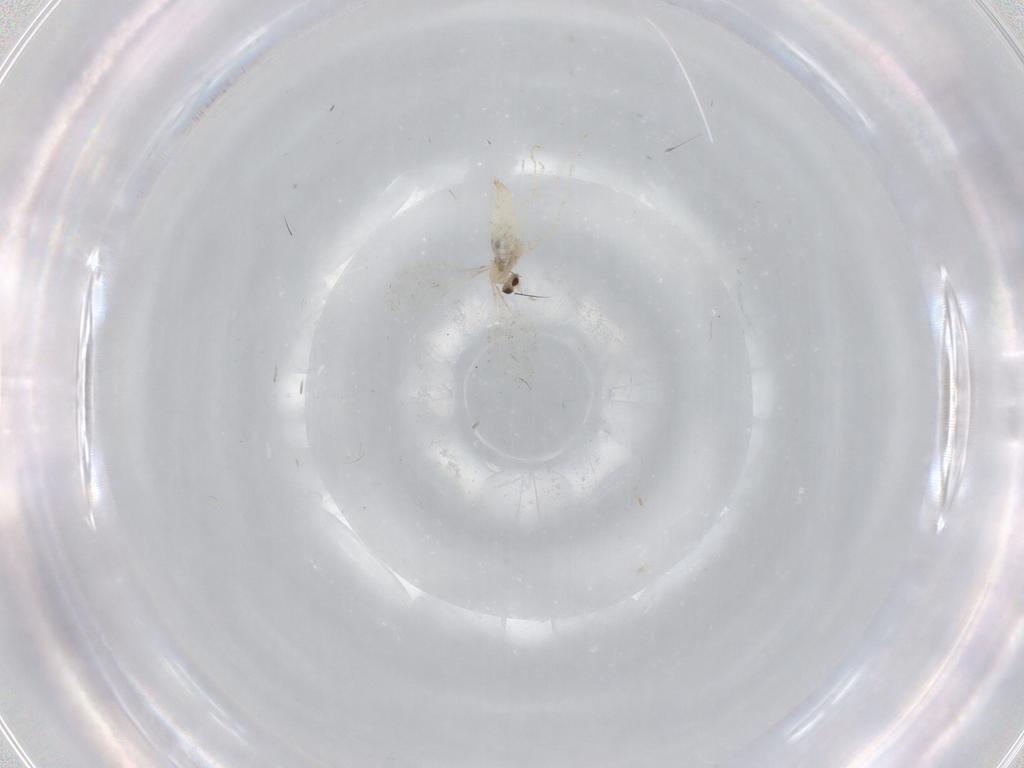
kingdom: Animalia
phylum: Arthropoda
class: Insecta
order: Diptera
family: Cecidomyiidae
